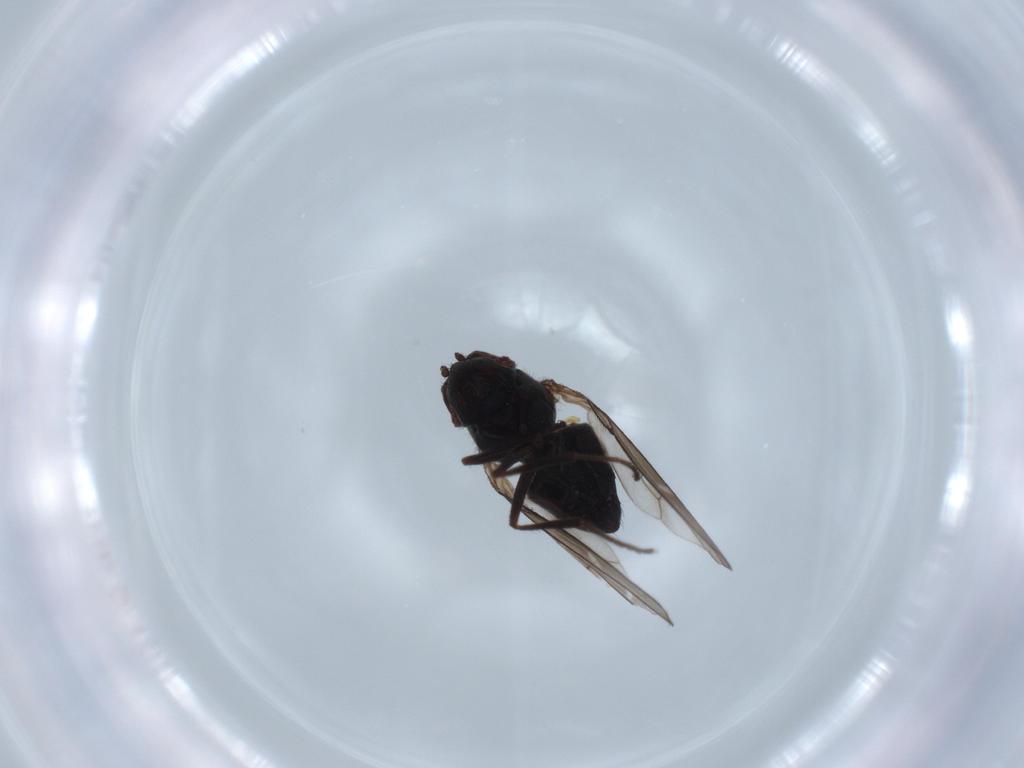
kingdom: Animalia
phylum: Arthropoda
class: Insecta
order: Diptera
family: Ephydridae
